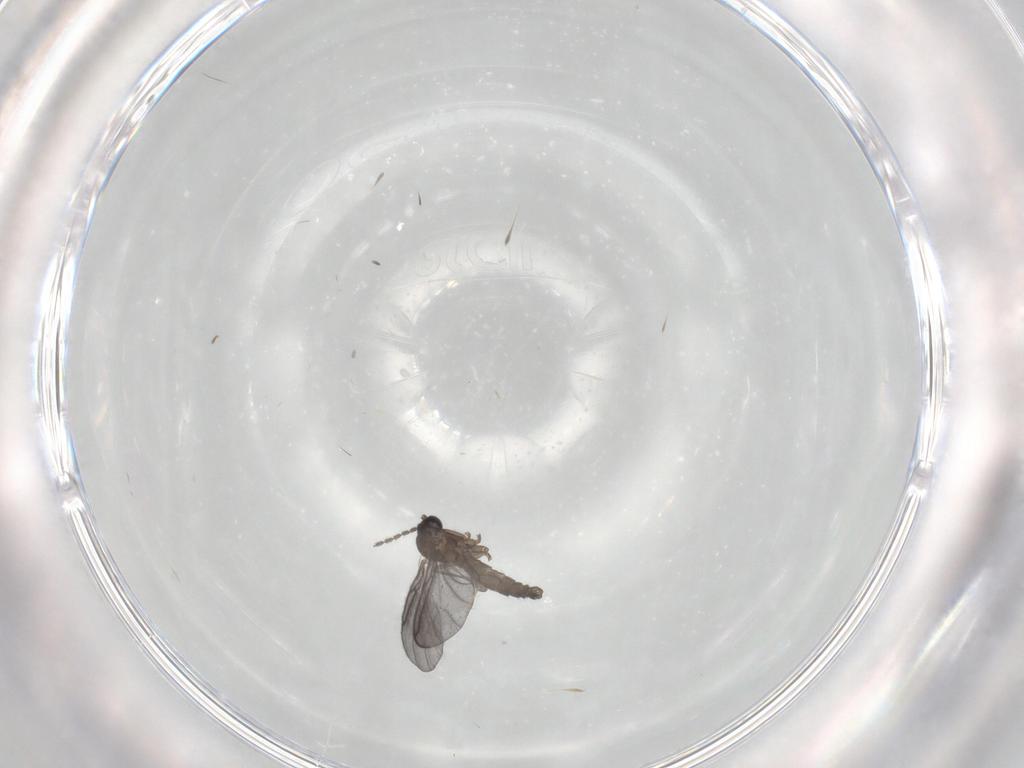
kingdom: Animalia
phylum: Arthropoda
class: Insecta
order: Diptera
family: Sciaridae
